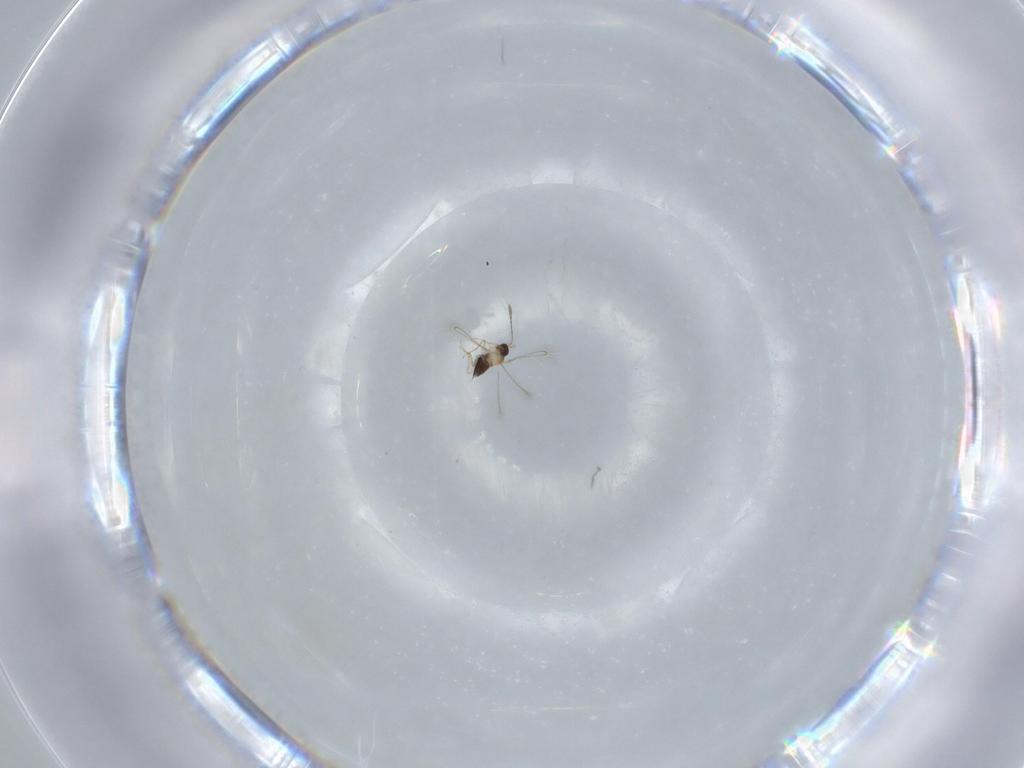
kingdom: Animalia
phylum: Arthropoda
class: Insecta
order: Hymenoptera
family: Mymaridae
